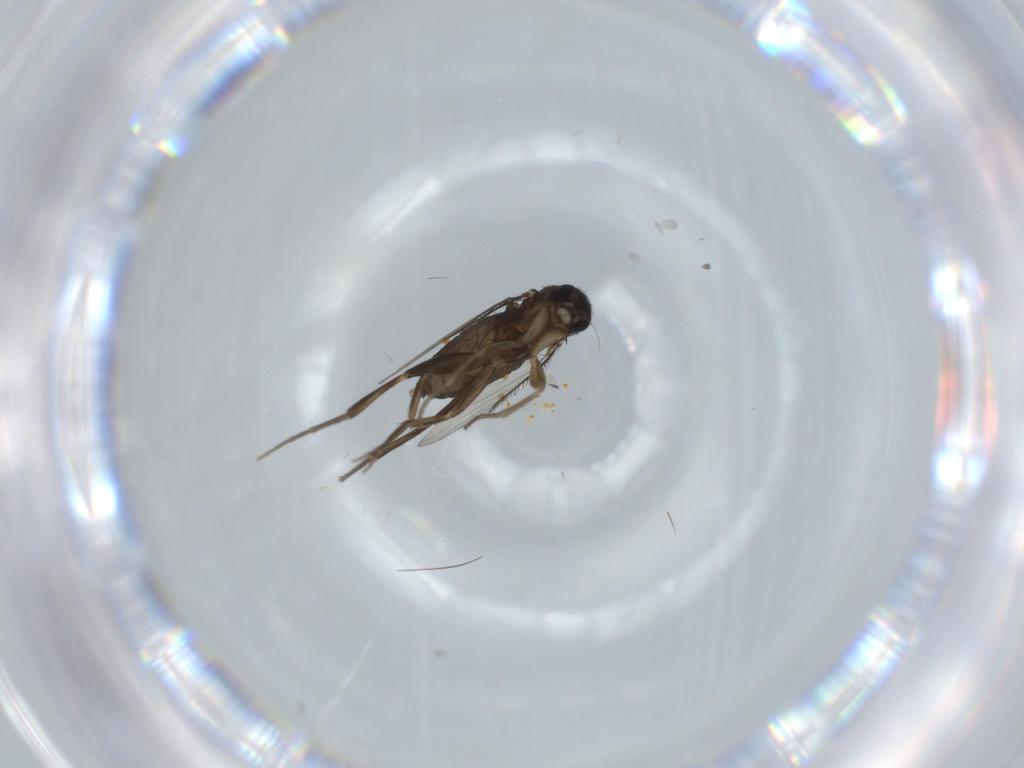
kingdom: Animalia
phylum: Arthropoda
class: Insecta
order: Diptera
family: Phoridae
